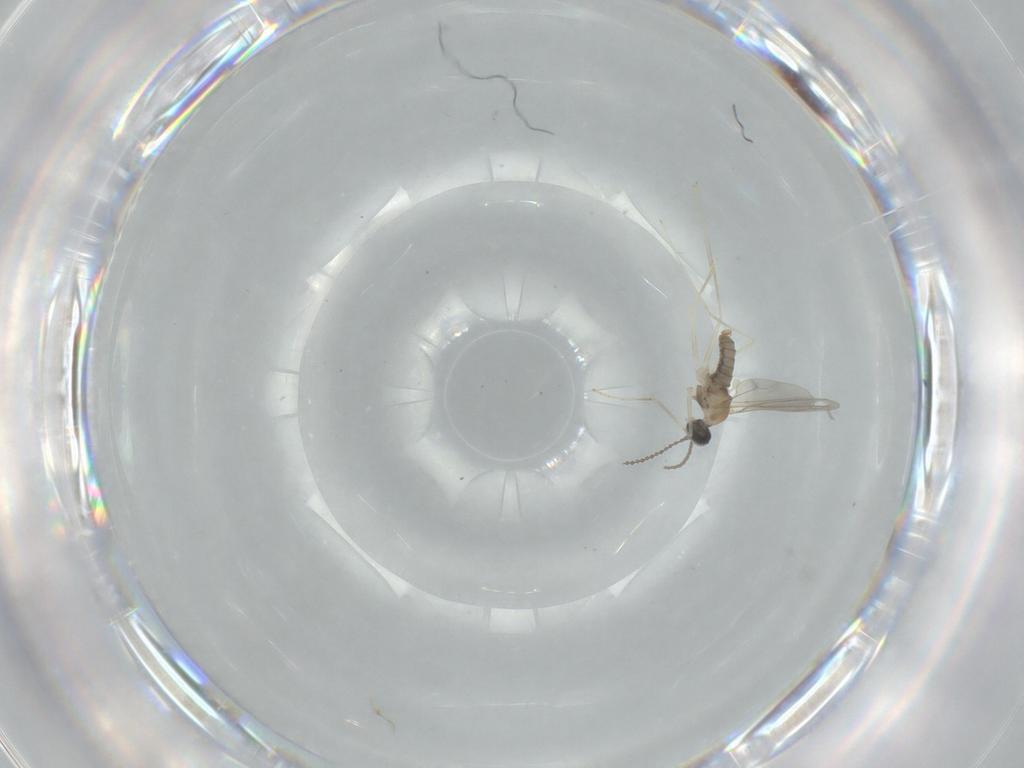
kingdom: Animalia
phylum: Arthropoda
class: Insecta
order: Diptera
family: Cecidomyiidae
